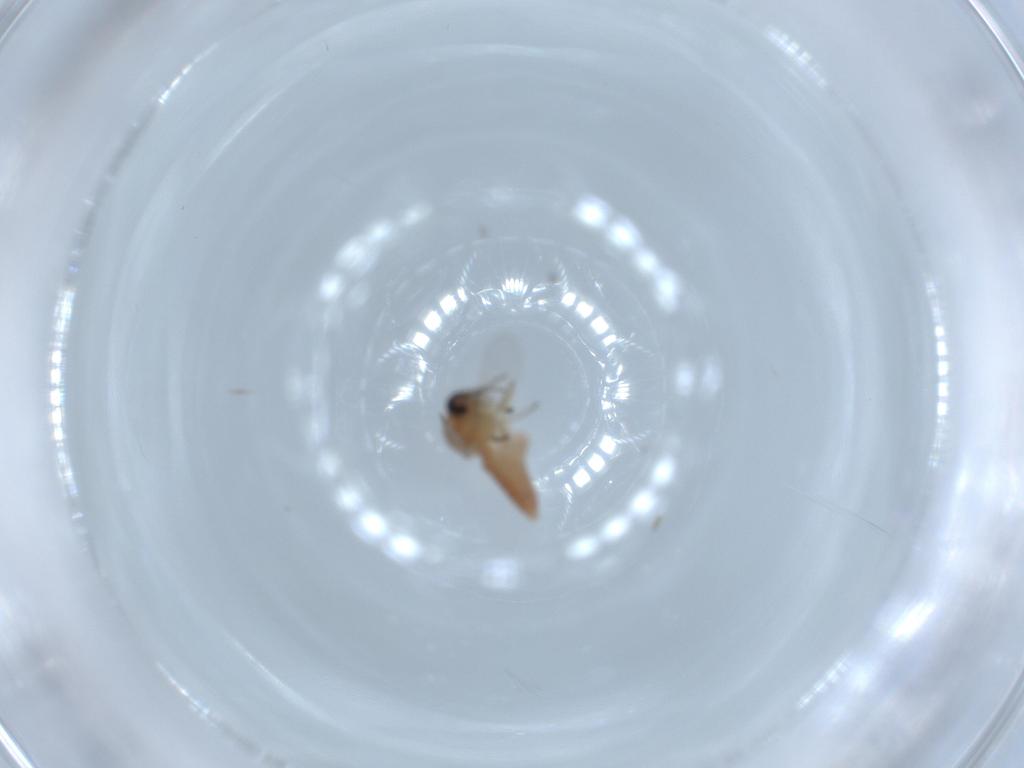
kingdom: Animalia
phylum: Arthropoda
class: Insecta
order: Diptera
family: Ceratopogonidae
